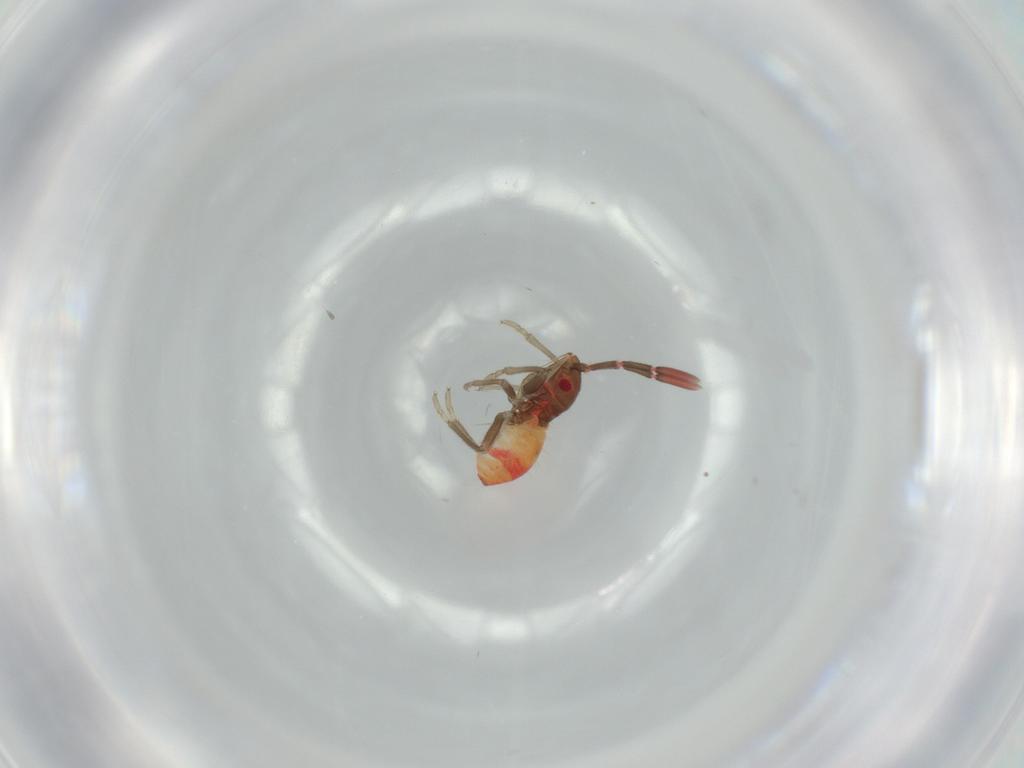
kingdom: Animalia
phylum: Arthropoda
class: Insecta
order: Hemiptera
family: Rhyparochromidae
